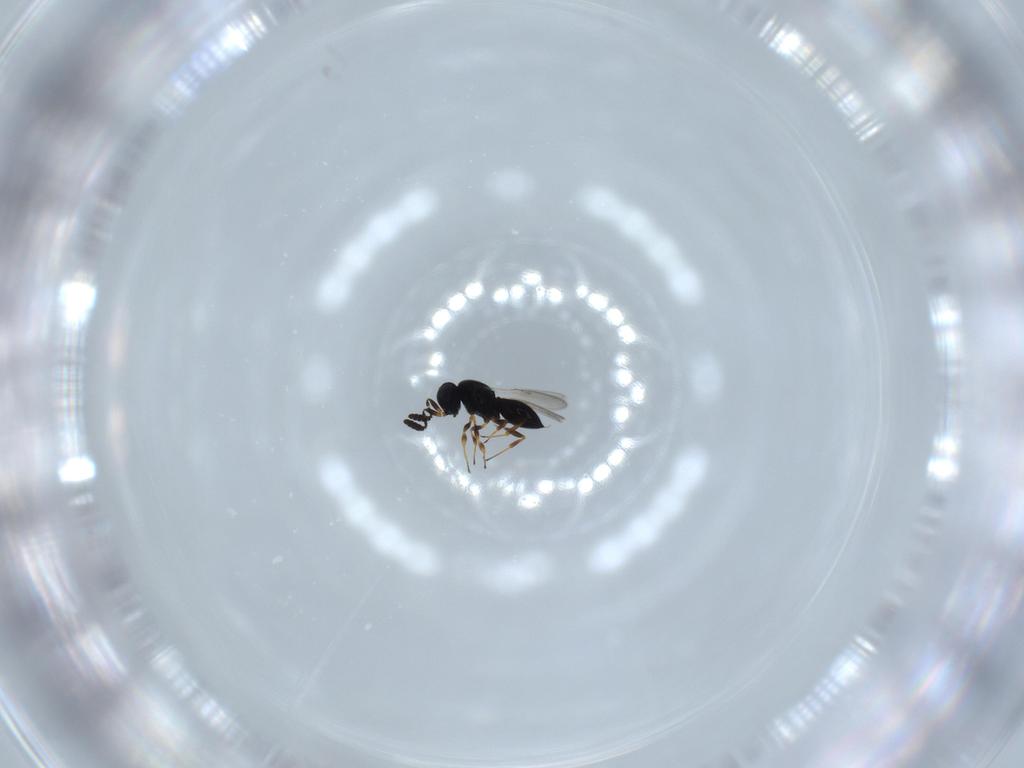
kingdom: Animalia
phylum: Arthropoda
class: Insecta
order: Hymenoptera
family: Scelionidae
